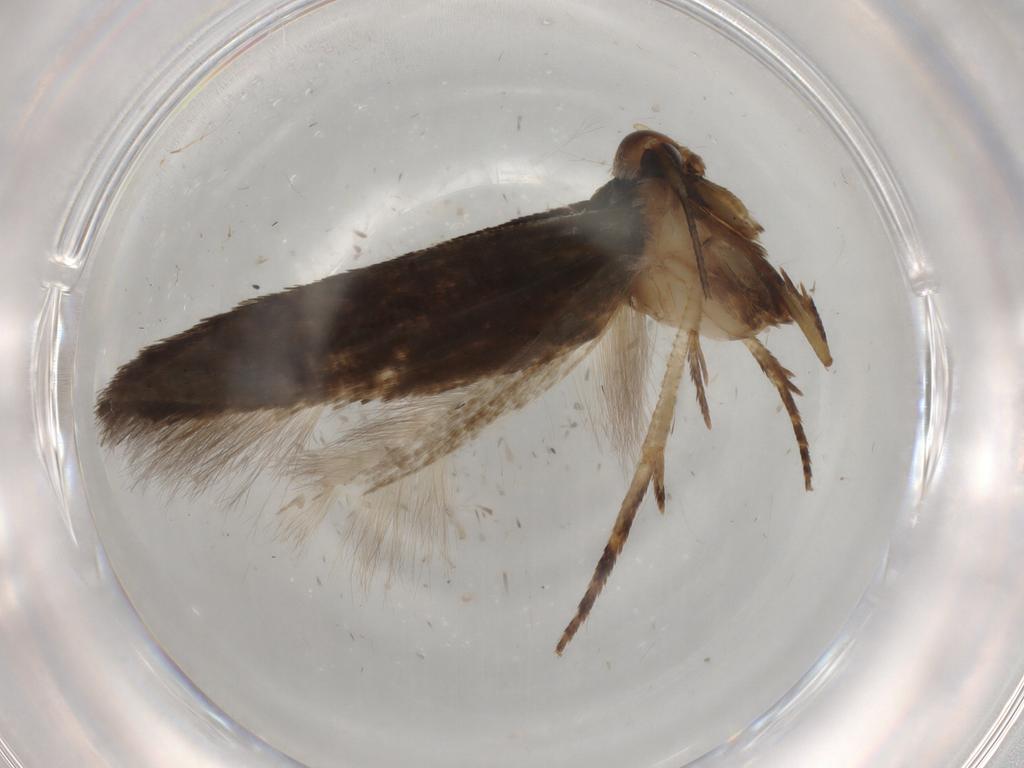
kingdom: Animalia
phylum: Arthropoda
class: Insecta
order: Lepidoptera
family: Cosmopterigidae
